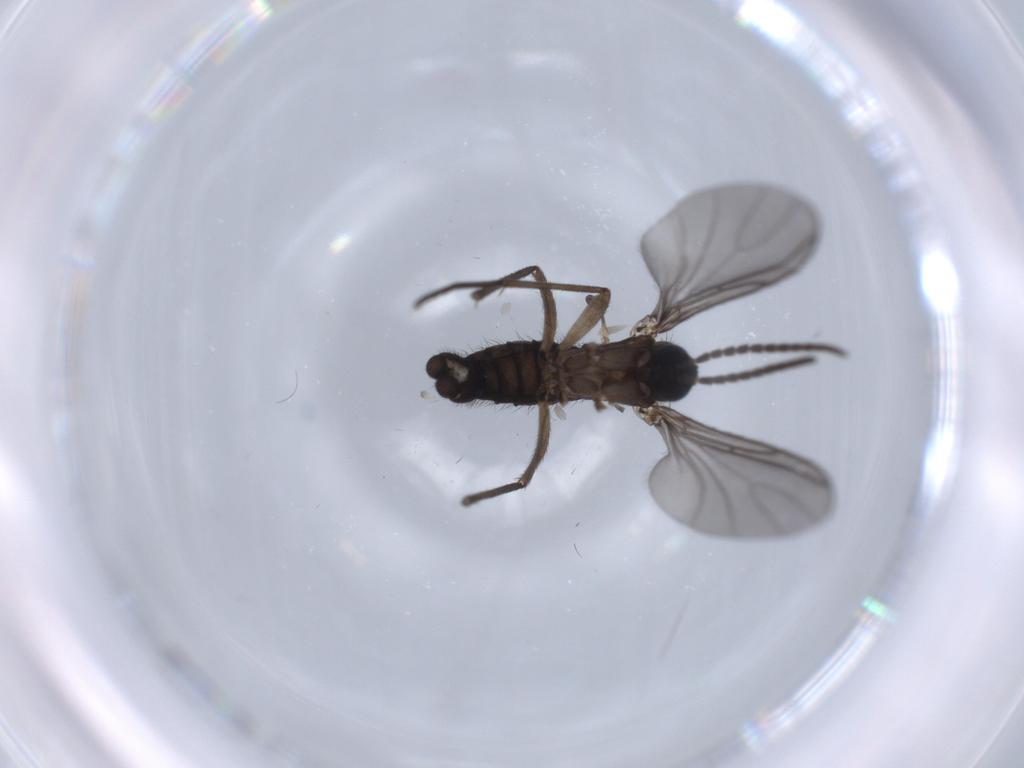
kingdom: Animalia
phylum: Arthropoda
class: Insecta
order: Diptera
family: Sciaridae
